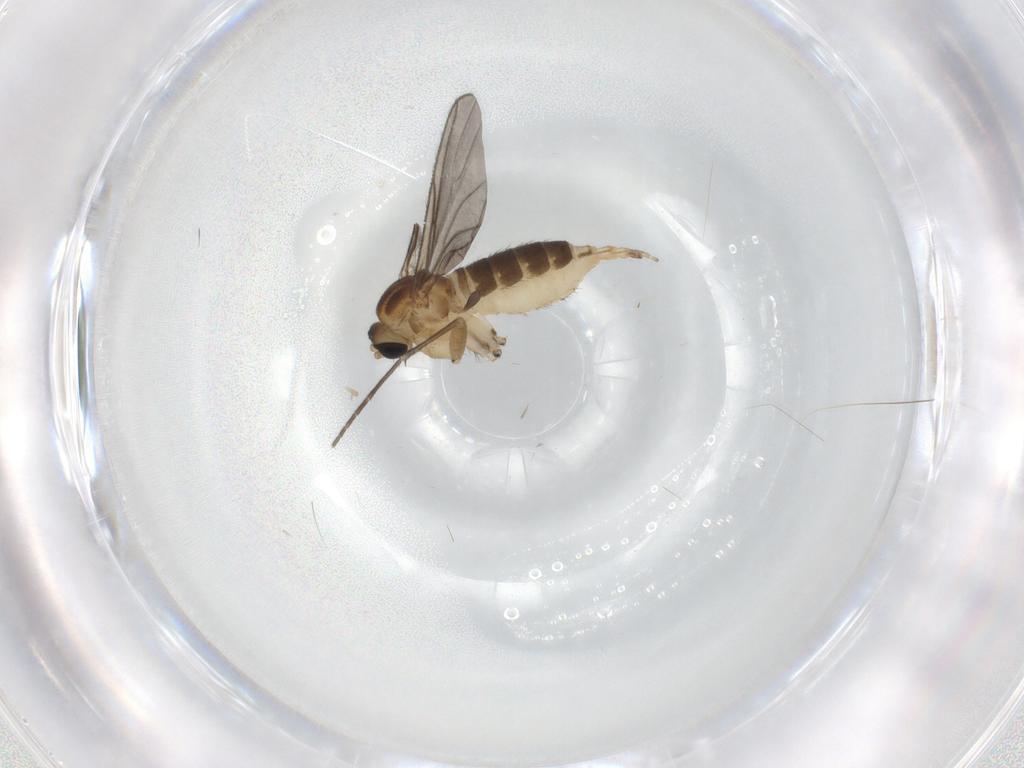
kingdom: Animalia
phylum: Arthropoda
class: Insecta
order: Diptera
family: Sciaridae
